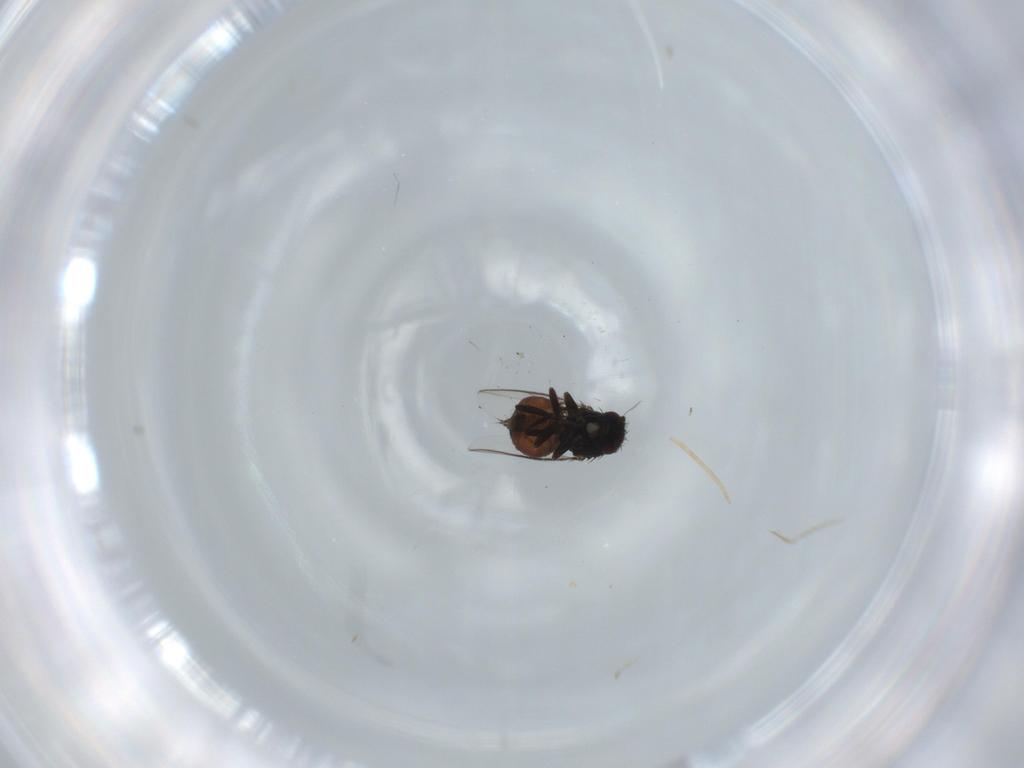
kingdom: Animalia
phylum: Arthropoda
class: Insecta
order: Diptera
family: Sphaeroceridae
